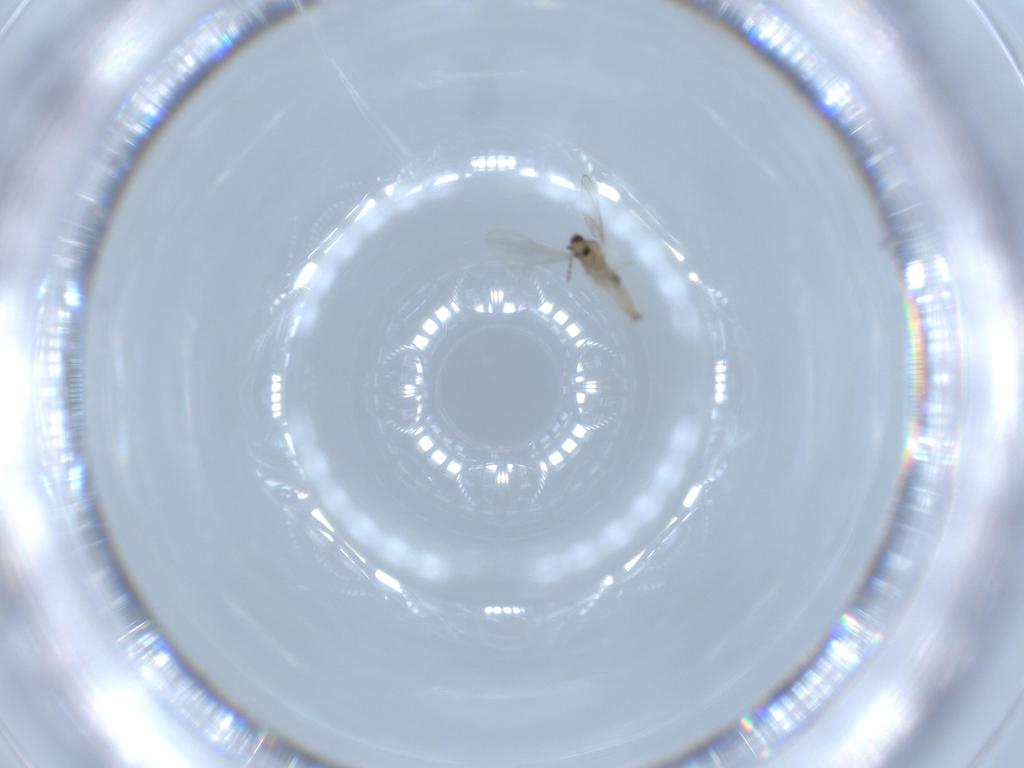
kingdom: Animalia
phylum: Arthropoda
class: Insecta
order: Diptera
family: Cecidomyiidae
